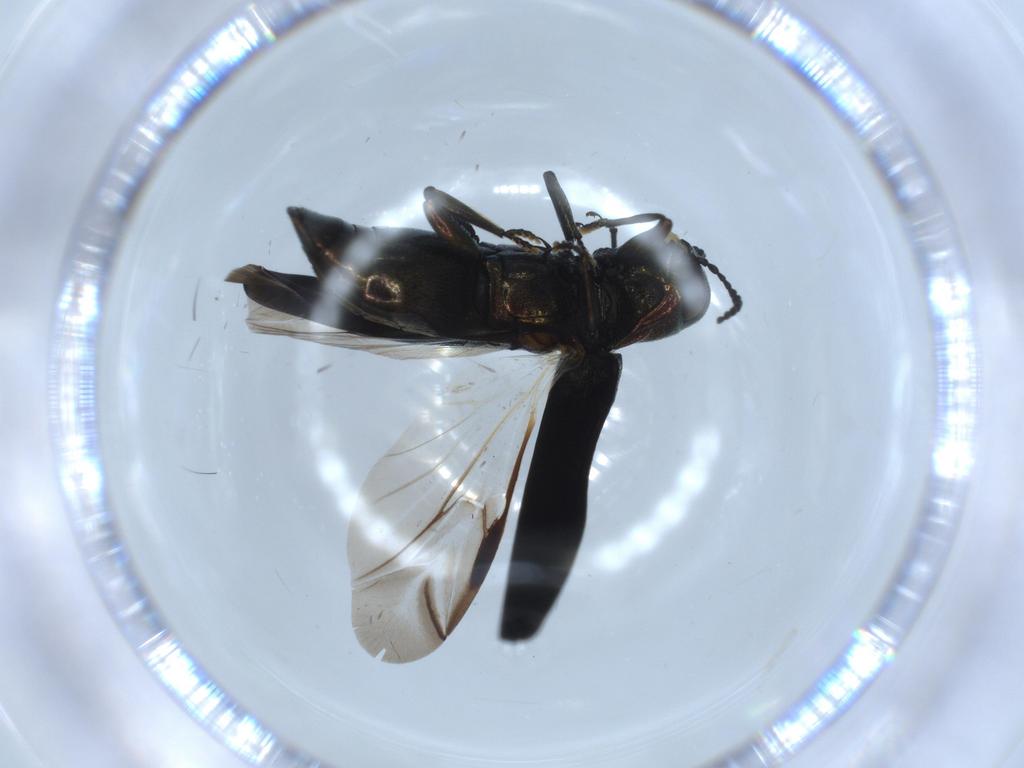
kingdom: Animalia
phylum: Arthropoda
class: Insecta
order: Coleoptera
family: Buprestidae
